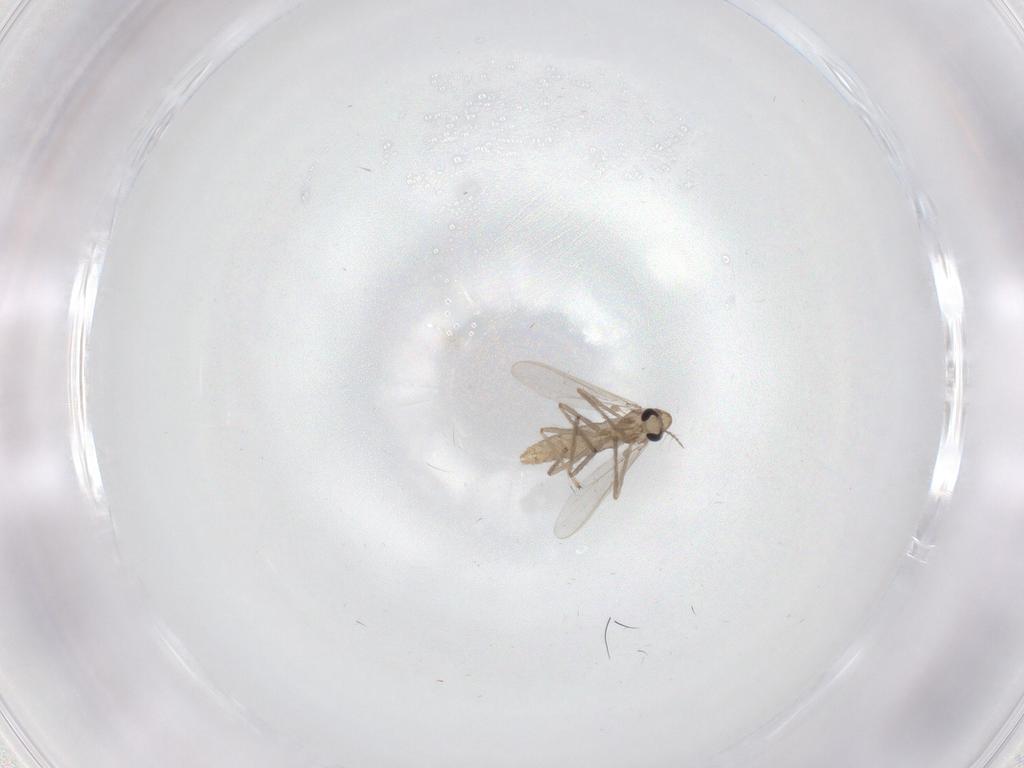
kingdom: Animalia
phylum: Arthropoda
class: Insecta
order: Diptera
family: Chironomidae
